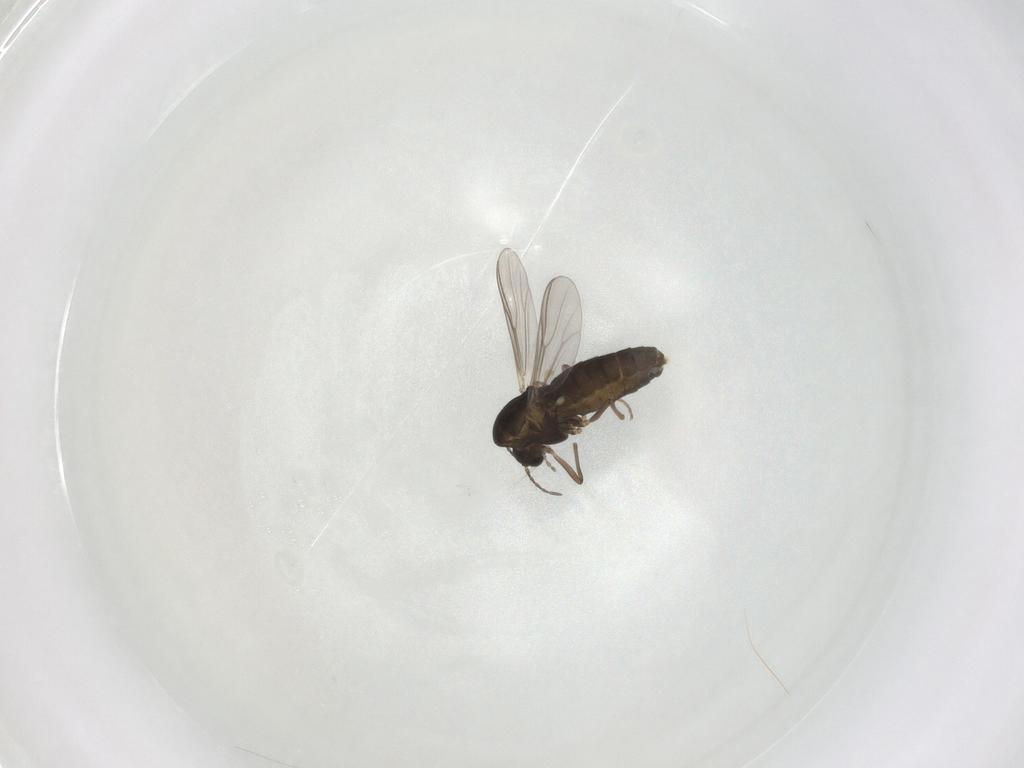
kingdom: Animalia
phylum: Arthropoda
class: Insecta
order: Diptera
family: Chironomidae
